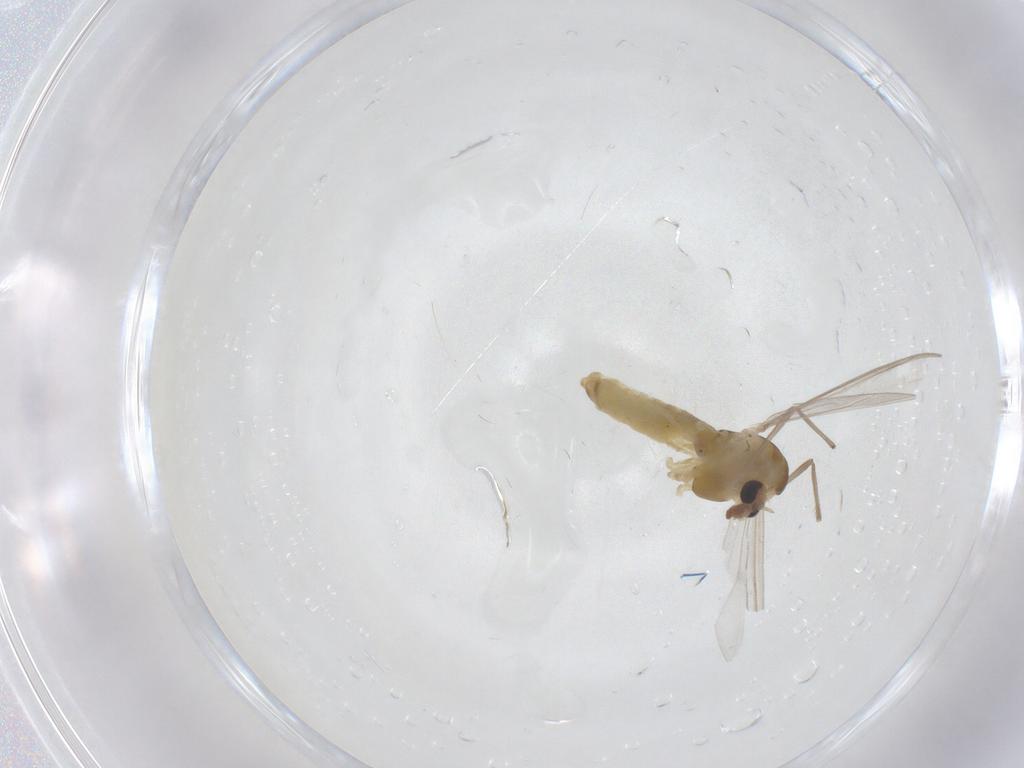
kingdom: Animalia
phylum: Arthropoda
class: Insecta
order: Diptera
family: Chironomidae
